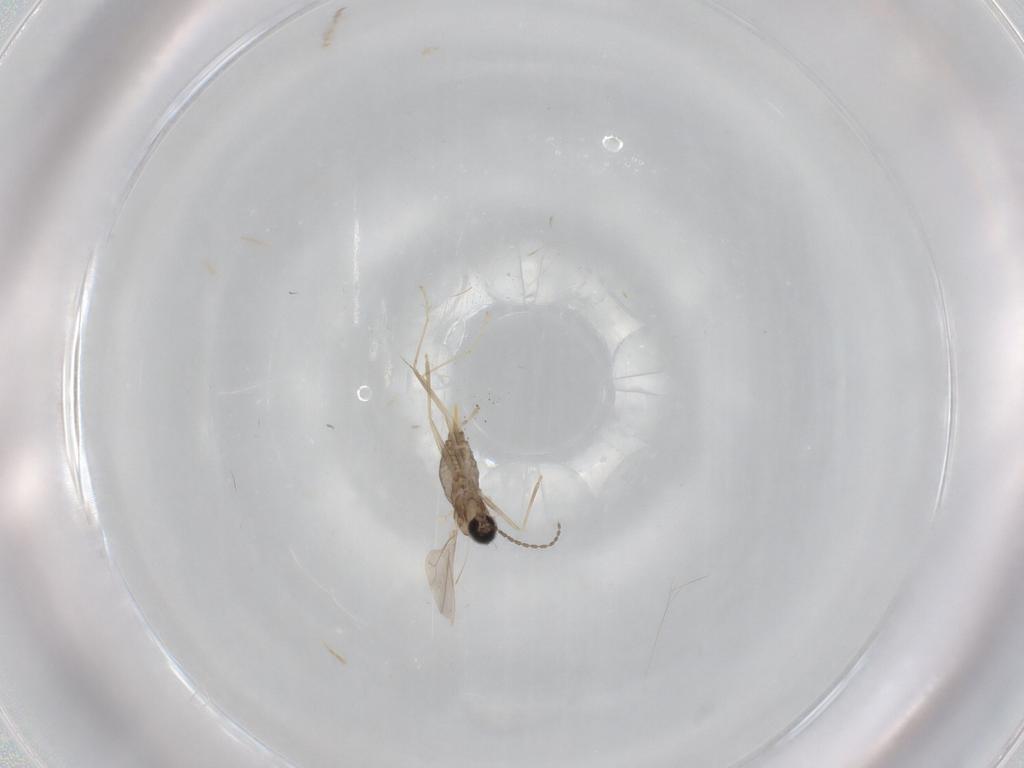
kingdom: Animalia
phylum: Arthropoda
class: Insecta
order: Diptera
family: Cecidomyiidae
